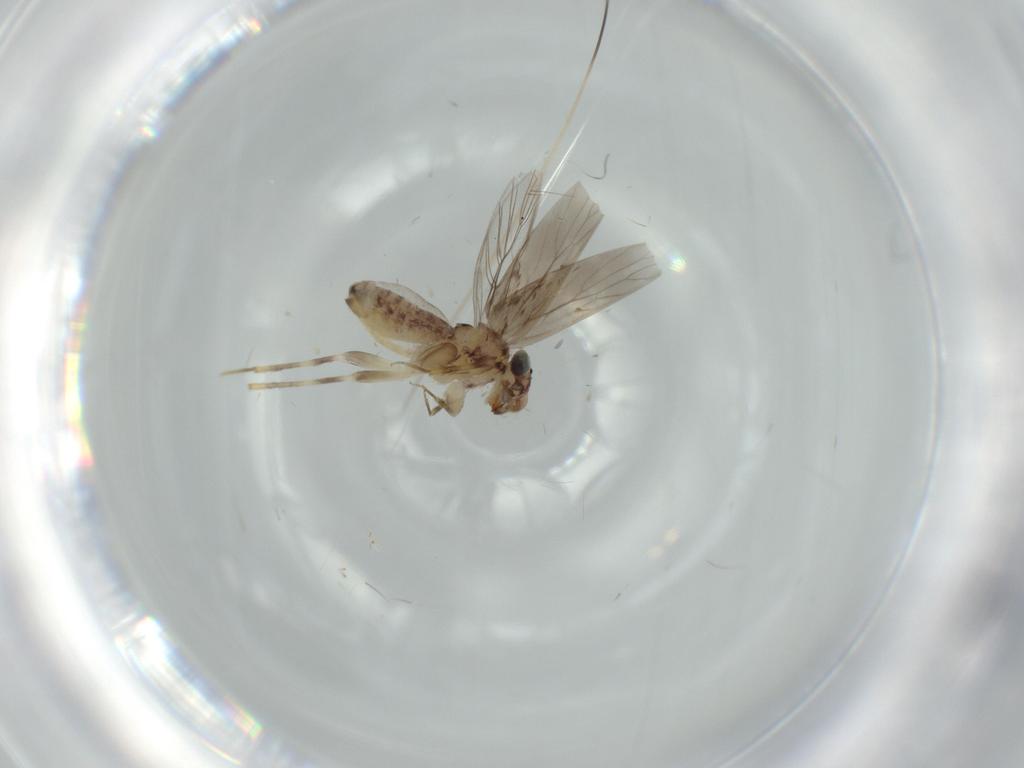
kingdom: Animalia
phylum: Arthropoda
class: Insecta
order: Psocodea
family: Lepidopsocidae
